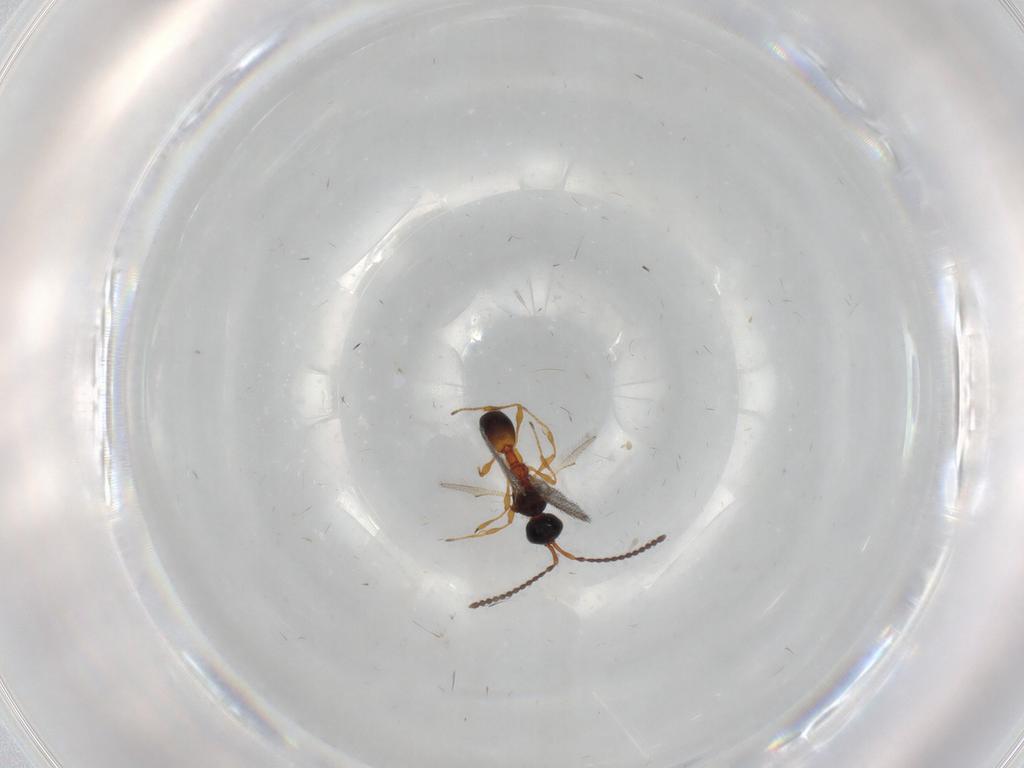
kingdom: Animalia
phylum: Arthropoda
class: Insecta
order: Hymenoptera
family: Diapriidae
